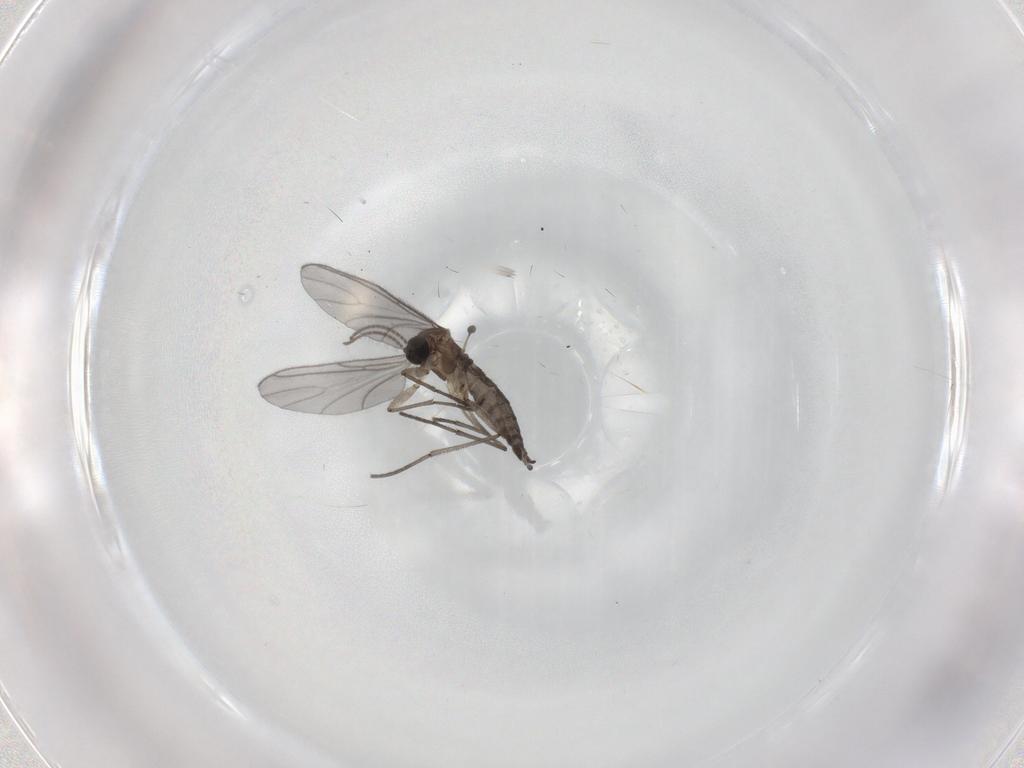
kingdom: Animalia
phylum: Arthropoda
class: Insecta
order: Diptera
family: Sciaridae
